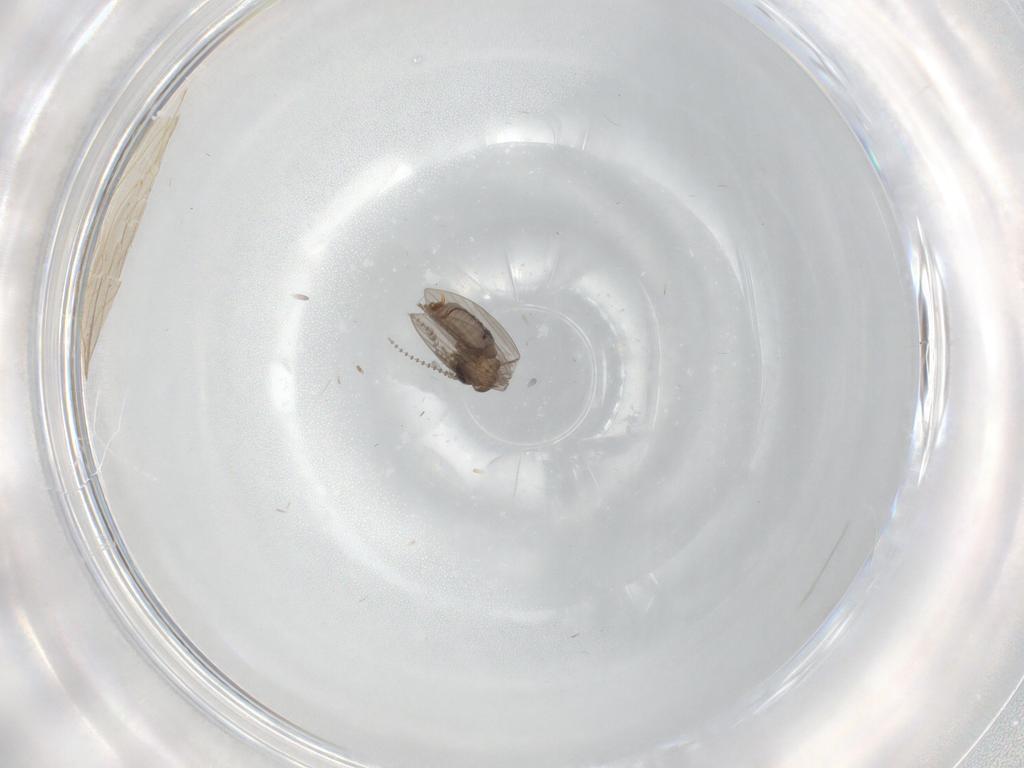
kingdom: Animalia
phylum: Arthropoda
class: Insecta
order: Diptera
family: Psychodidae
